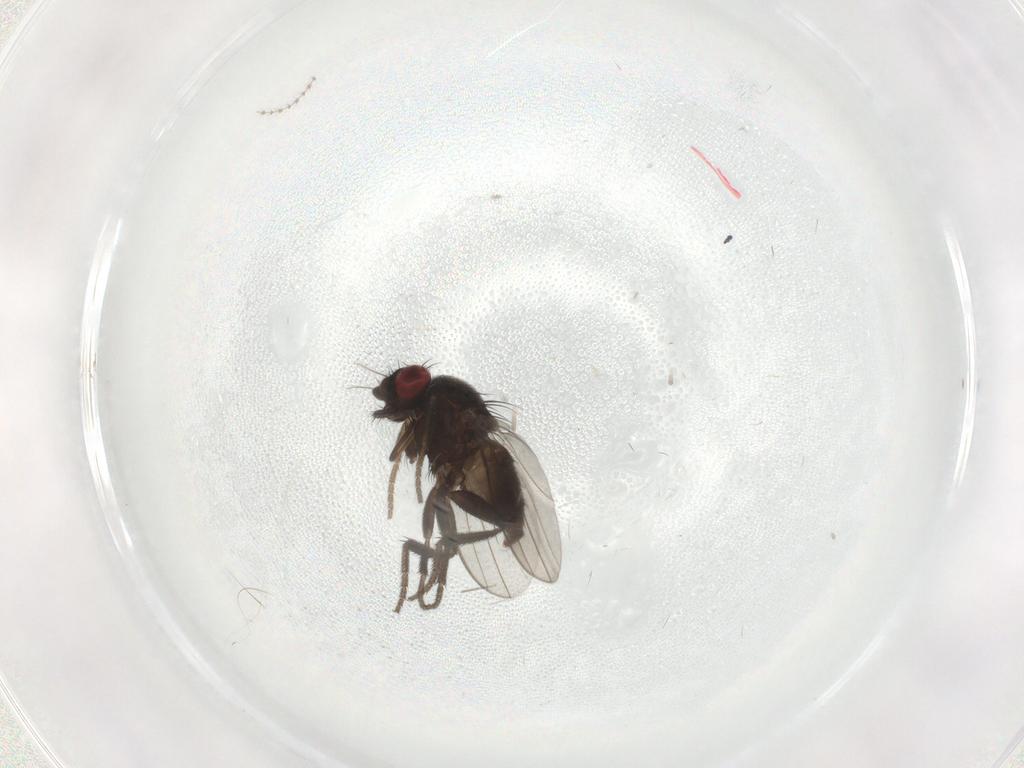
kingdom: Animalia
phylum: Arthropoda
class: Insecta
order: Diptera
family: Milichiidae
